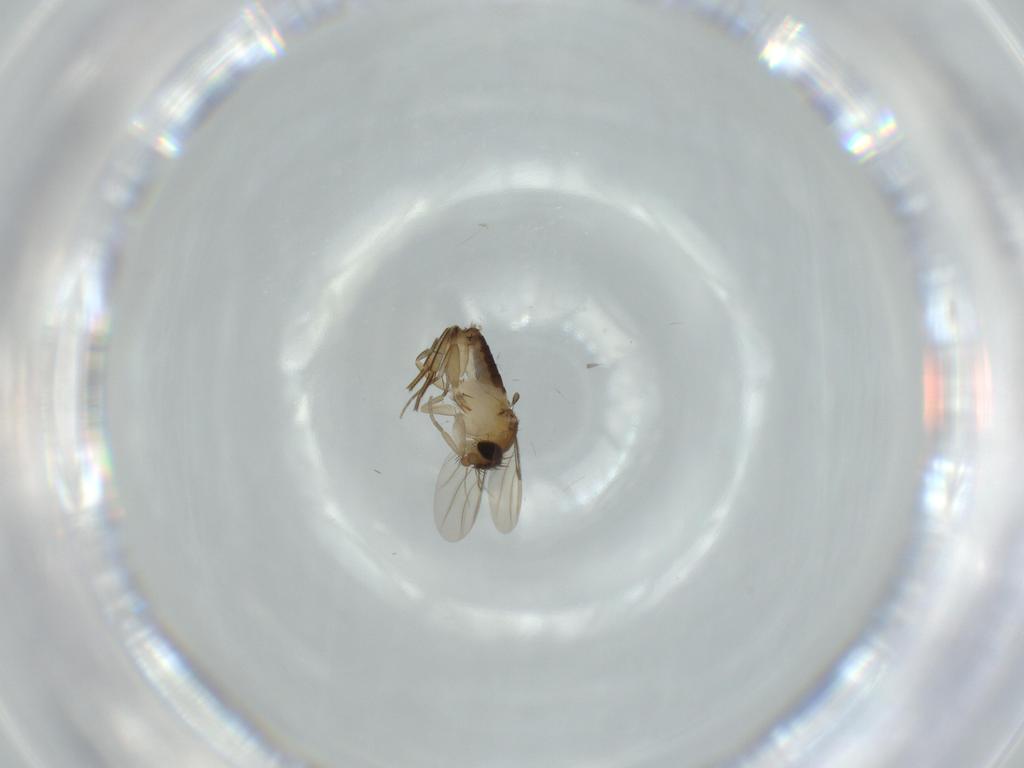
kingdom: Animalia
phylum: Arthropoda
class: Insecta
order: Diptera
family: Phoridae
